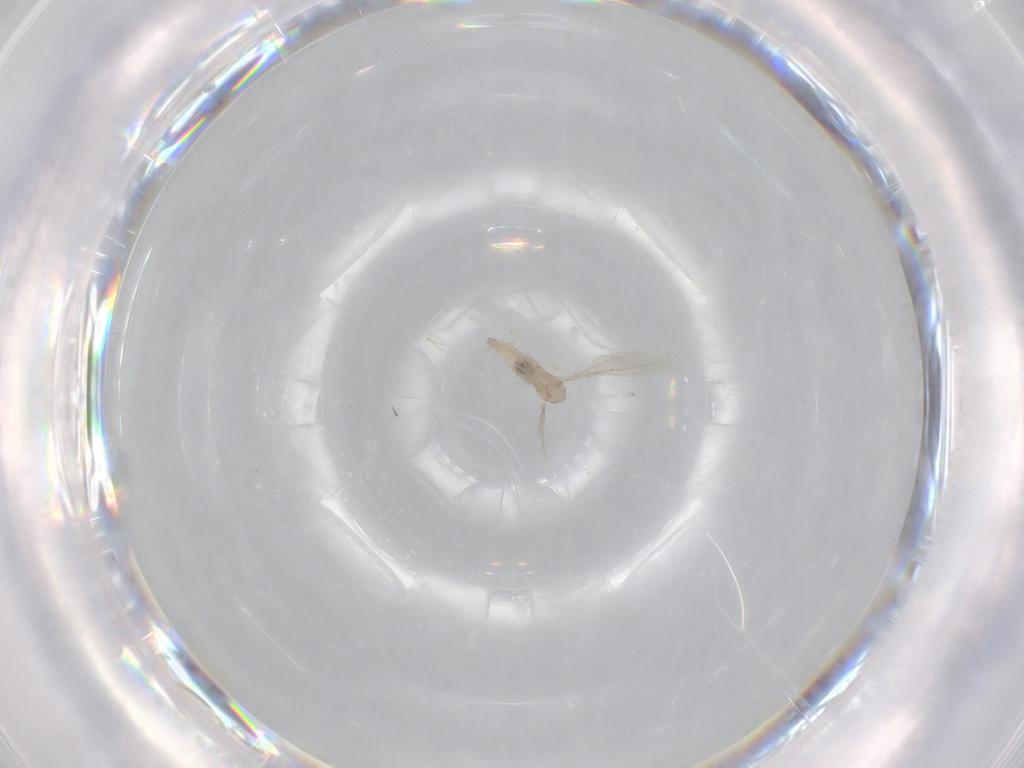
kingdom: Animalia
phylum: Arthropoda
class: Insecta
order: Diptera
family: Cecidomyiidae
